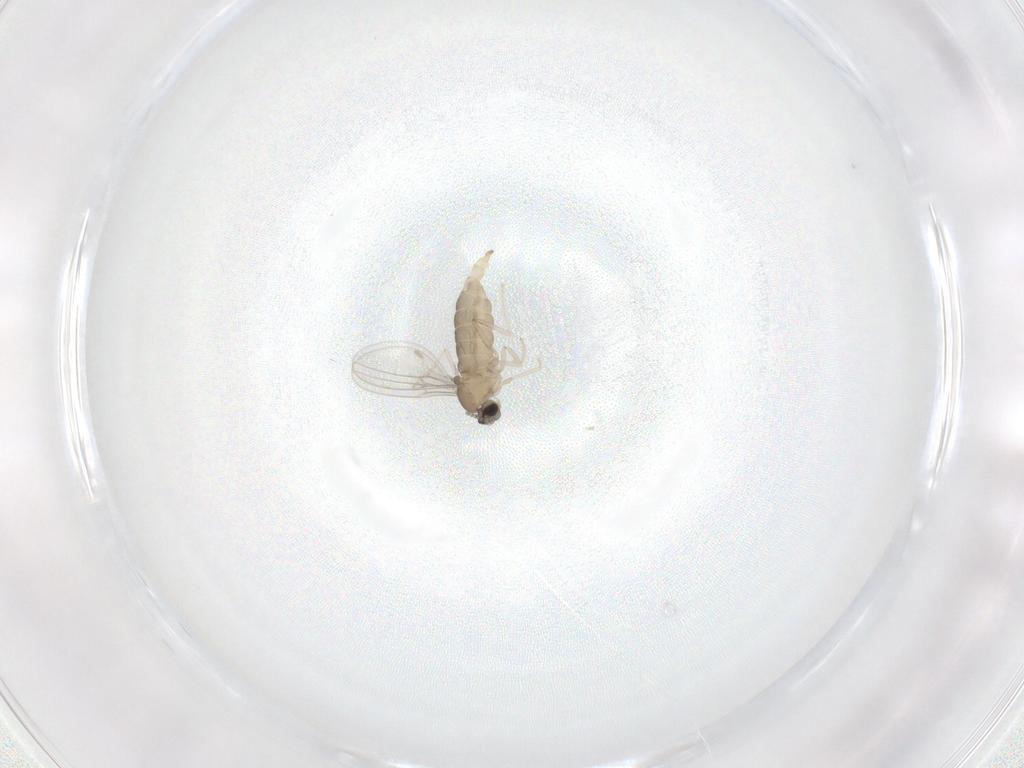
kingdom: Animalia
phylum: Arthropoda
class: Insecta
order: Diptera
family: Cecidomyiidae
